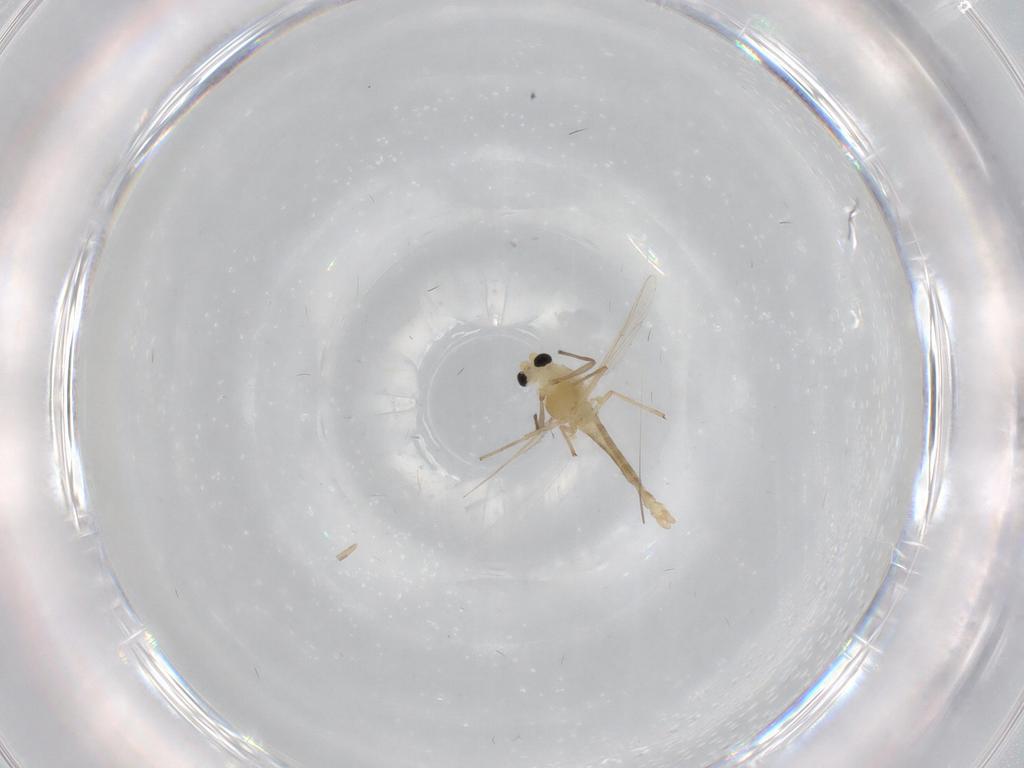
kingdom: Animalia
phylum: Arthropoda
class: Insecta
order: Diptera
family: Chironomidae
